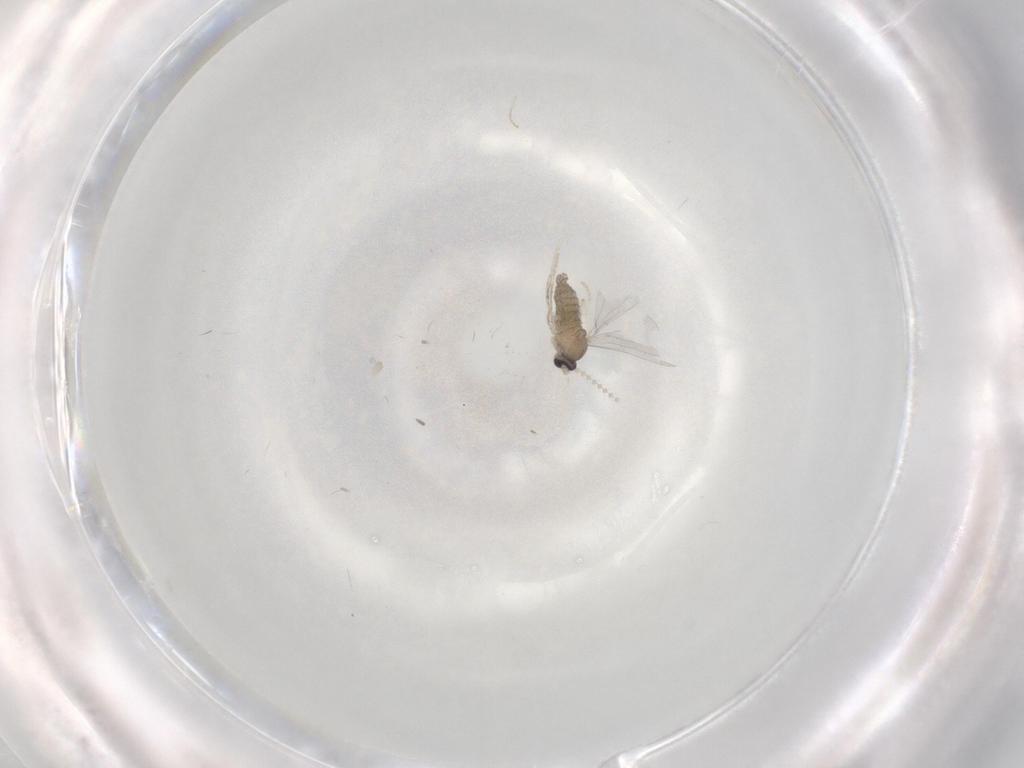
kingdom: Animalia
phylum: Arthropoda
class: Insecta
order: Diptera
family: Cecidomyiidae
